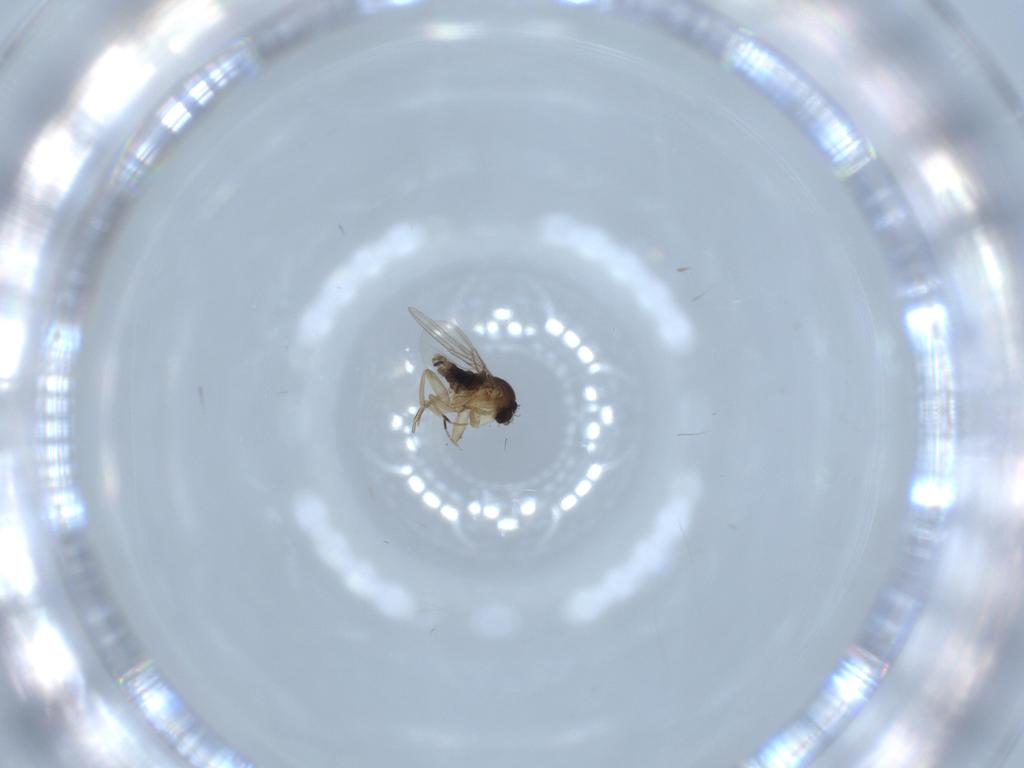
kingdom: Animalia
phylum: Arthropoda
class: Insecta
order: Diptera
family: Phoridae
